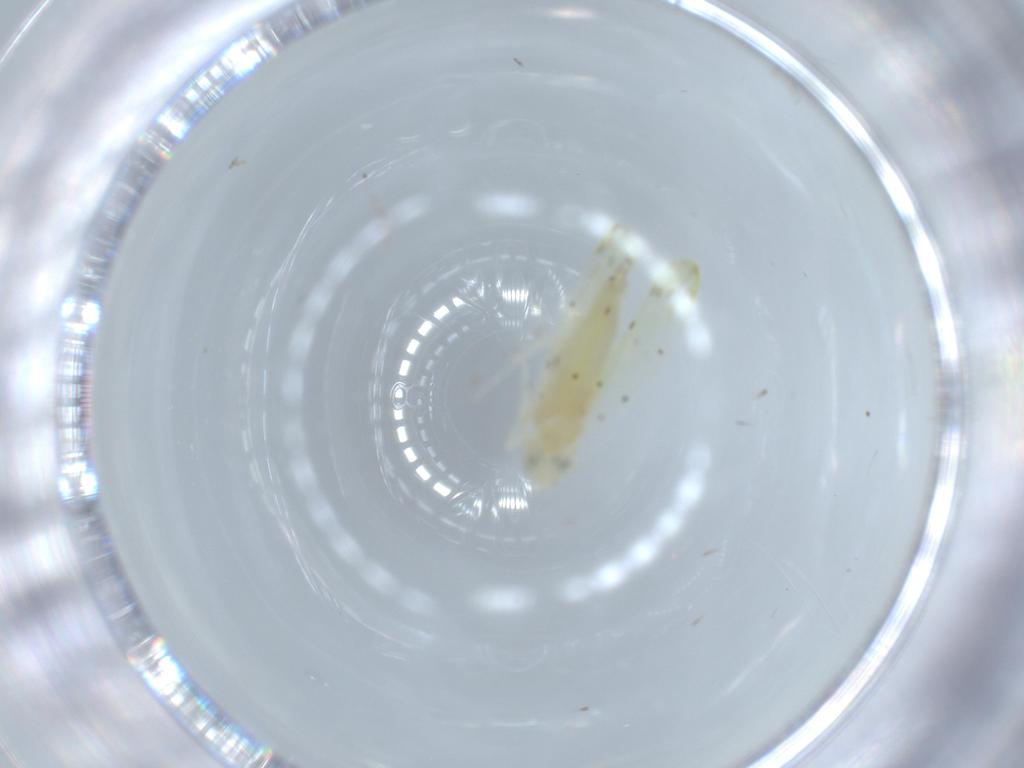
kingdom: Animalia
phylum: Arthropoda
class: Insecta
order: Hemiptera
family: Cicadellidae
